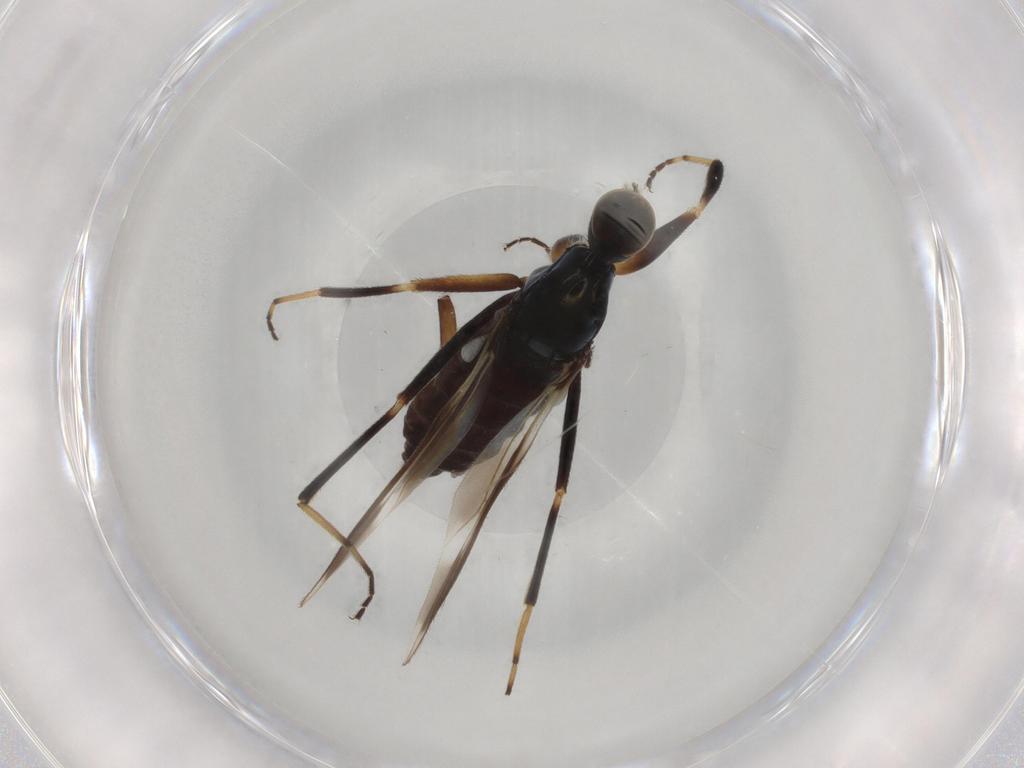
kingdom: Animalia
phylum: Arthropoda
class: Insecta
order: Diptera
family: Hybotidae
